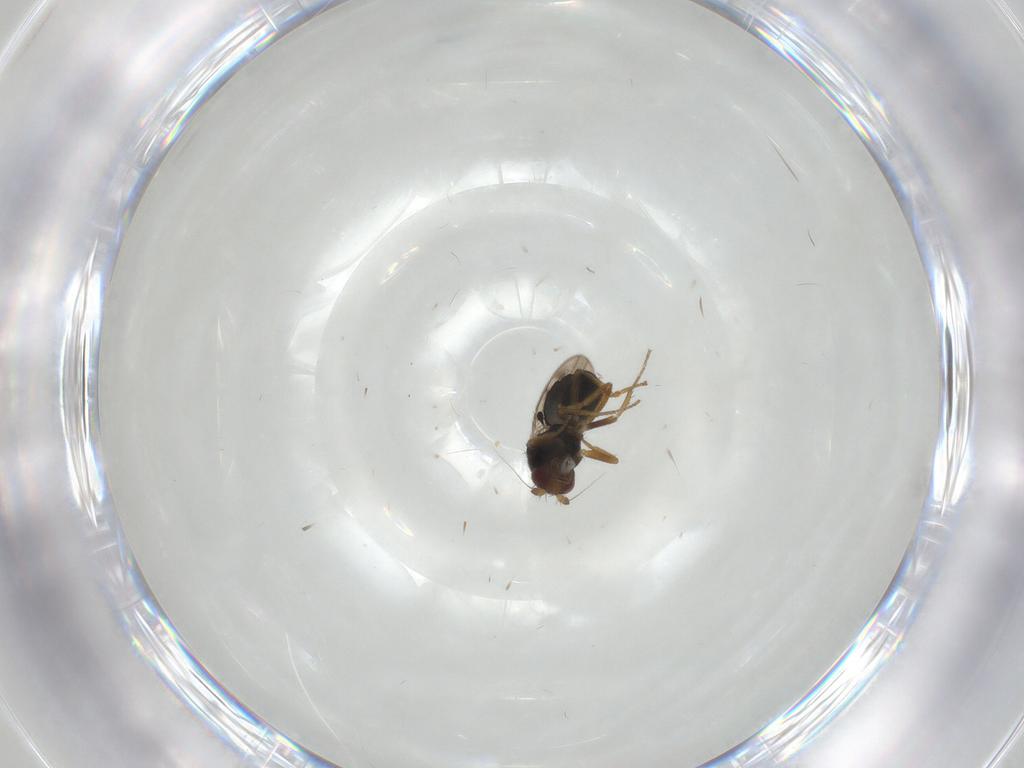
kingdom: Animalia
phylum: Arthropoda
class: Insecta
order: Diptera
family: Sphaeroceridae
